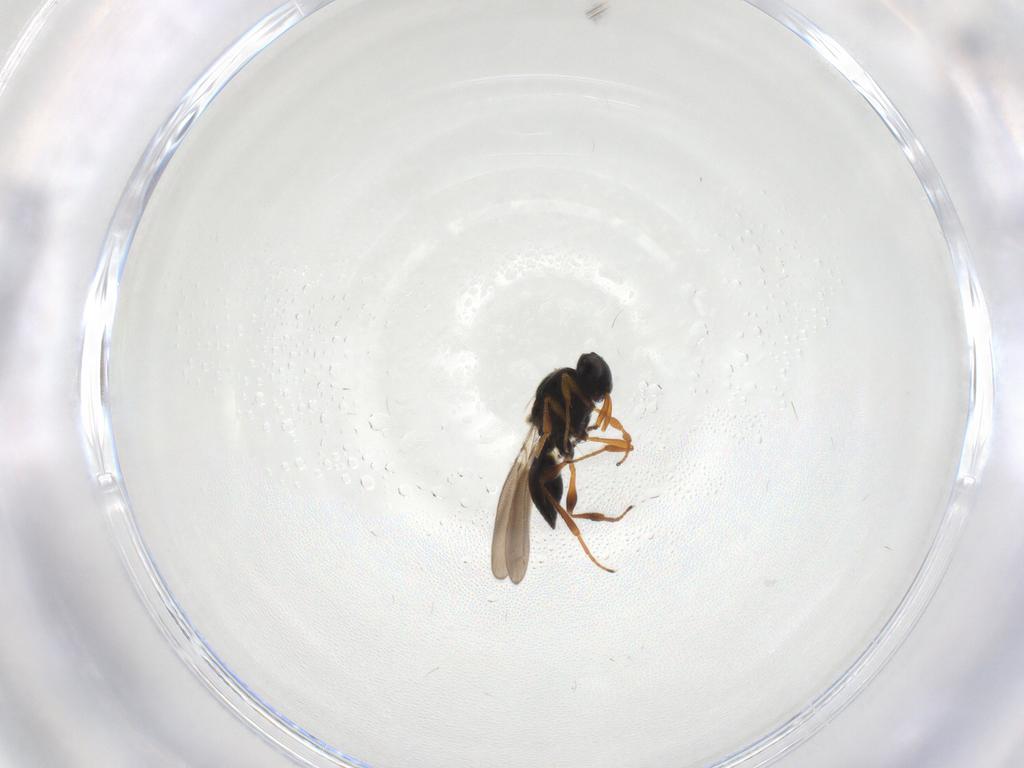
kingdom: Animalia
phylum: Arthropoda
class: Insecta
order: Hymenoptera
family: Platygastridae
